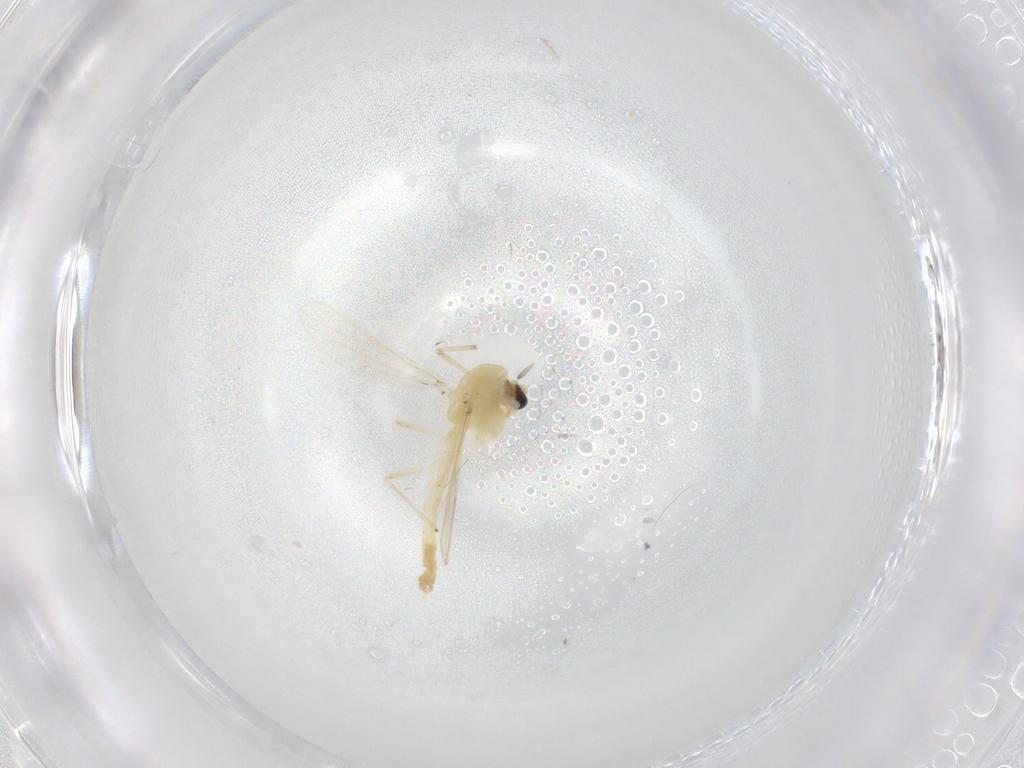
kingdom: Animalia
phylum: Arthropoda
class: Insecta
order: Diptera
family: Chironomidae
